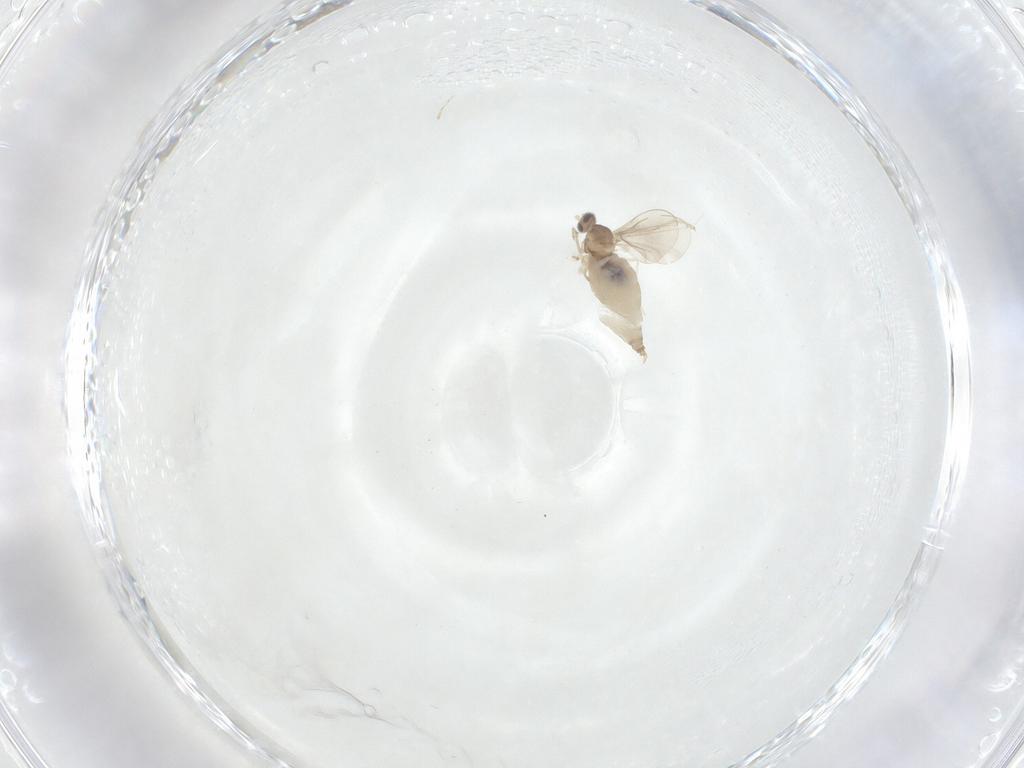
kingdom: Animalia
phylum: Arthropoda
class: Insecta
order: Diptera
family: Cecidomyiidae
